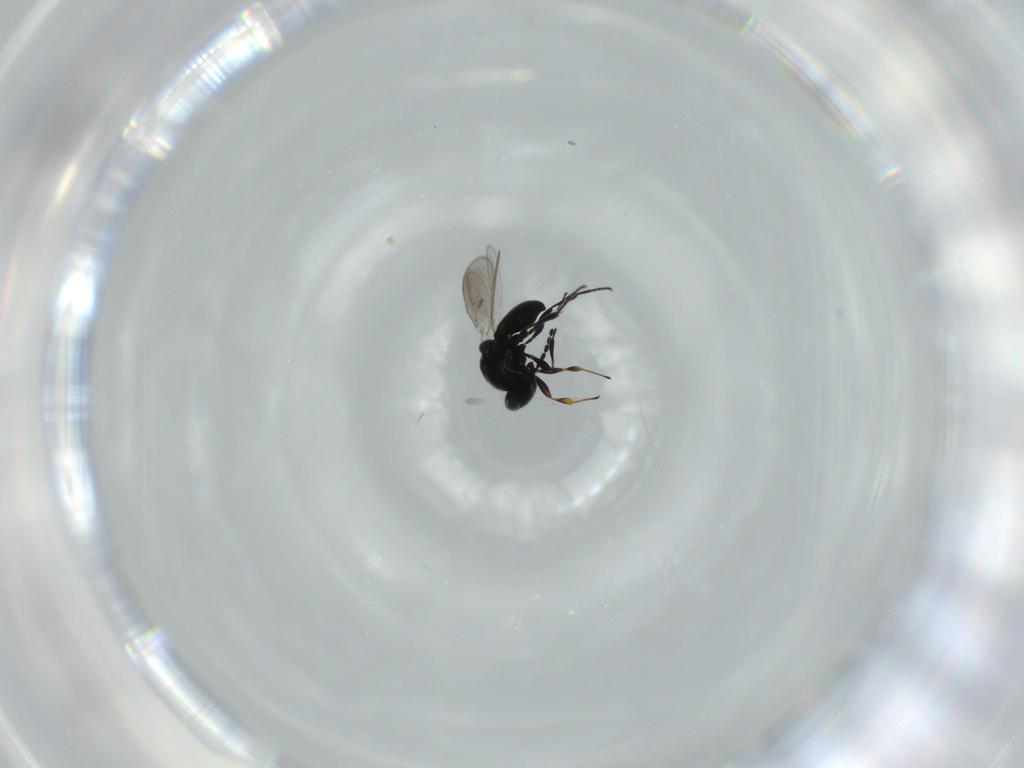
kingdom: Animalia
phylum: Arthropoda
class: Insecta
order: Hymenoptera
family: Platygastridae
